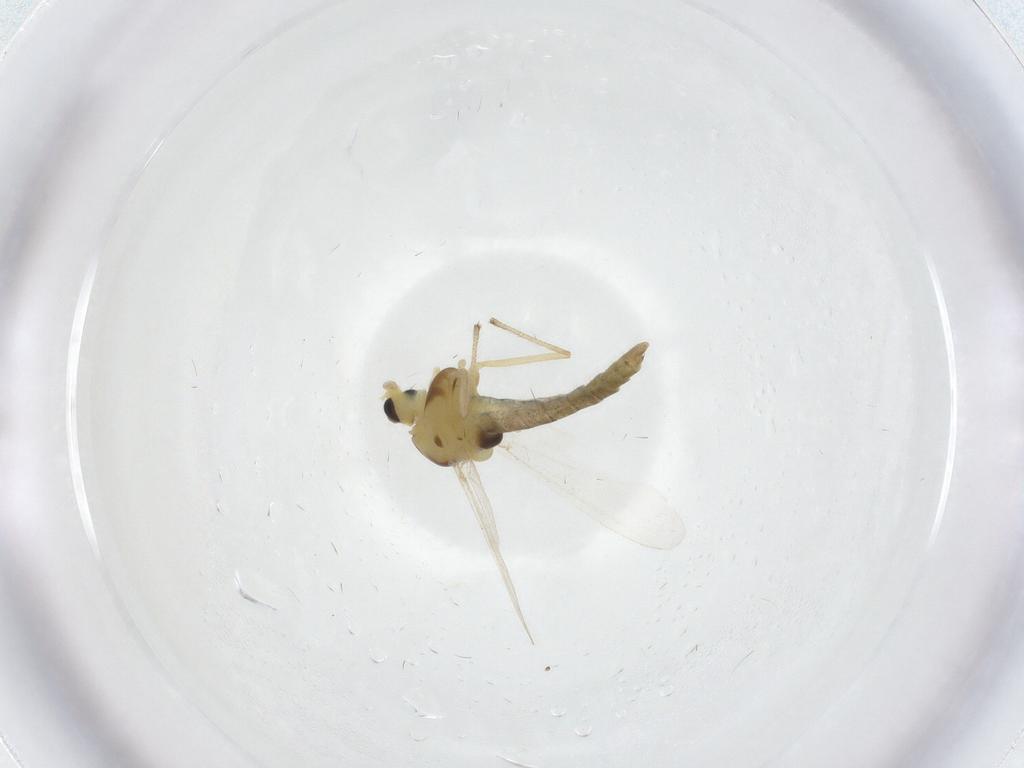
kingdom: Animalia
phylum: Arthropoda
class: Insecta
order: Diptera
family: Chironomidae
